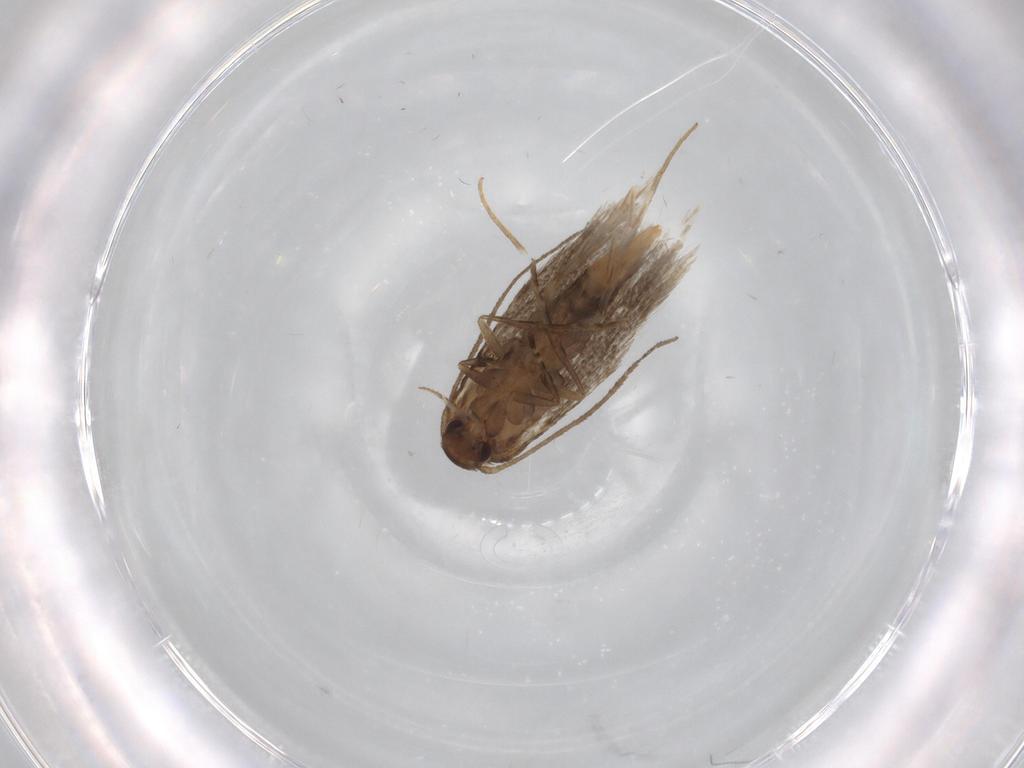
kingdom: Animalia
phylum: Arthropoda
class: Insecta
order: Lepidoptera
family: Elachistidae
